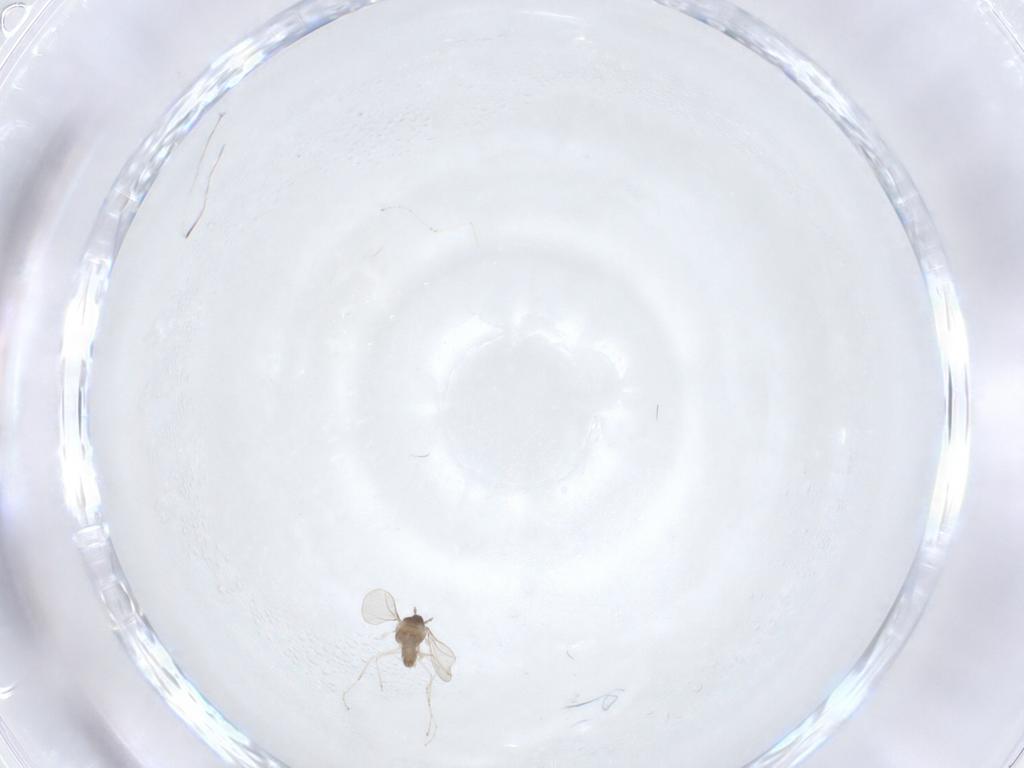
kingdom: Animalia
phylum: Arthropoda
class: Insecta
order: Diptera
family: Cecidomyiidae
